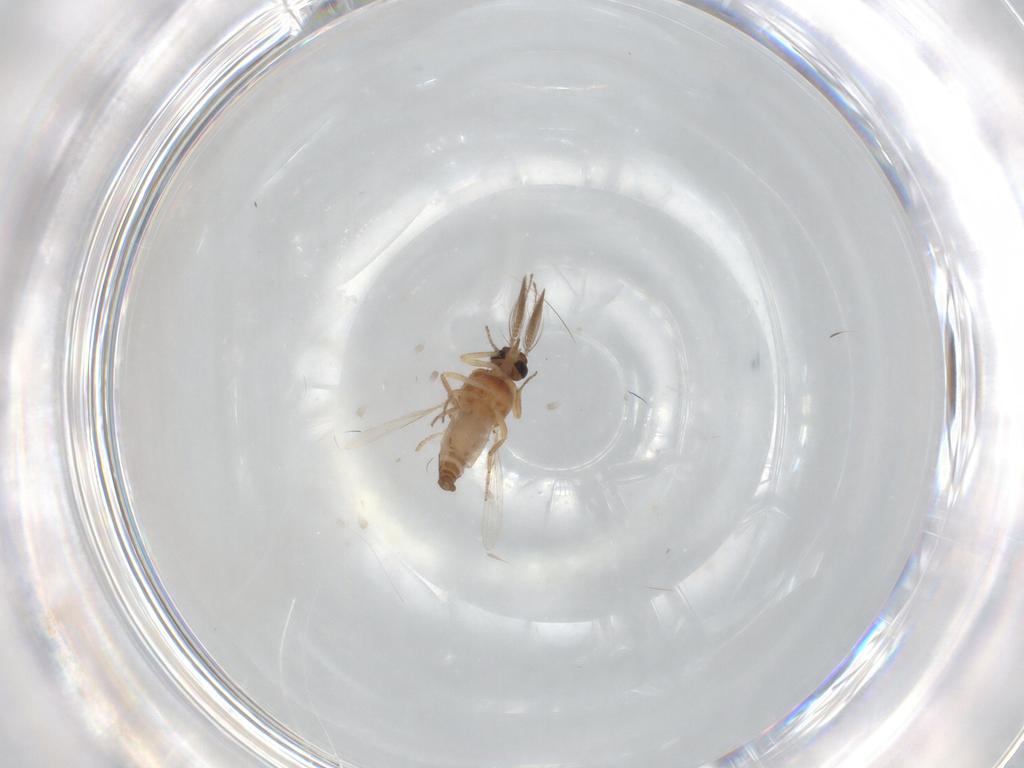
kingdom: Animalia
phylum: Arthropoda
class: Insecta
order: Diptera
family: Ceratopogonidae
